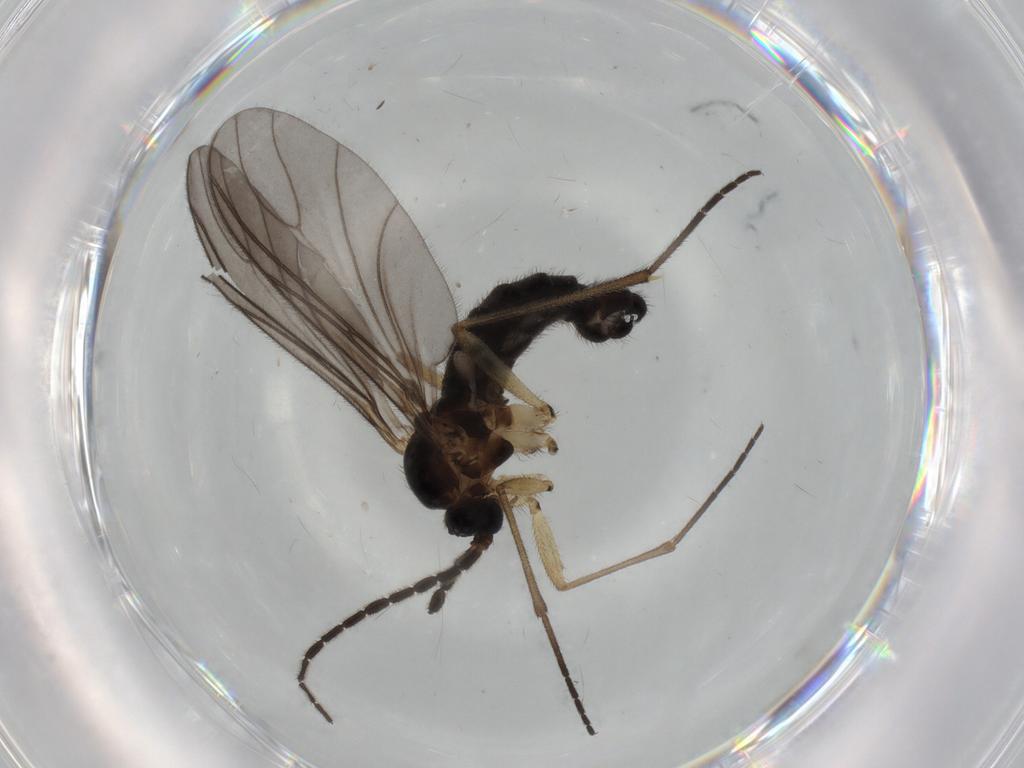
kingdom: Animalia
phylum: Arthropoda
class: Insecta
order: Diptera
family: Sciaridae
